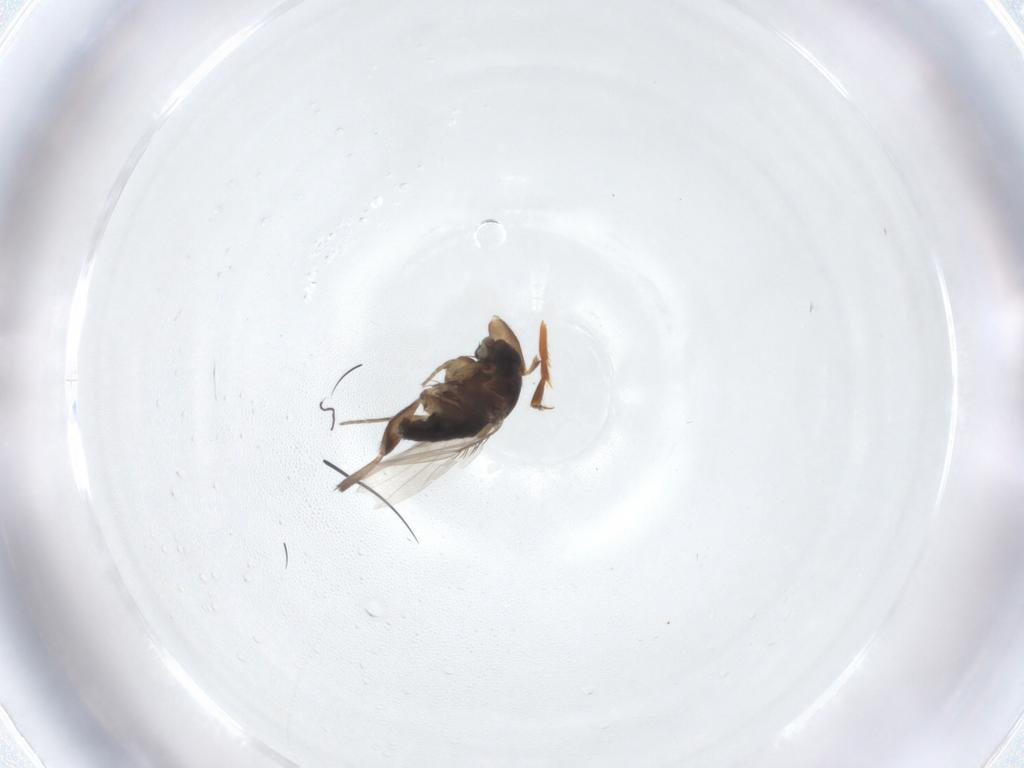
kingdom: Animalia
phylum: Arthropoda
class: Insecta
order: Diptera
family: Phoridae
